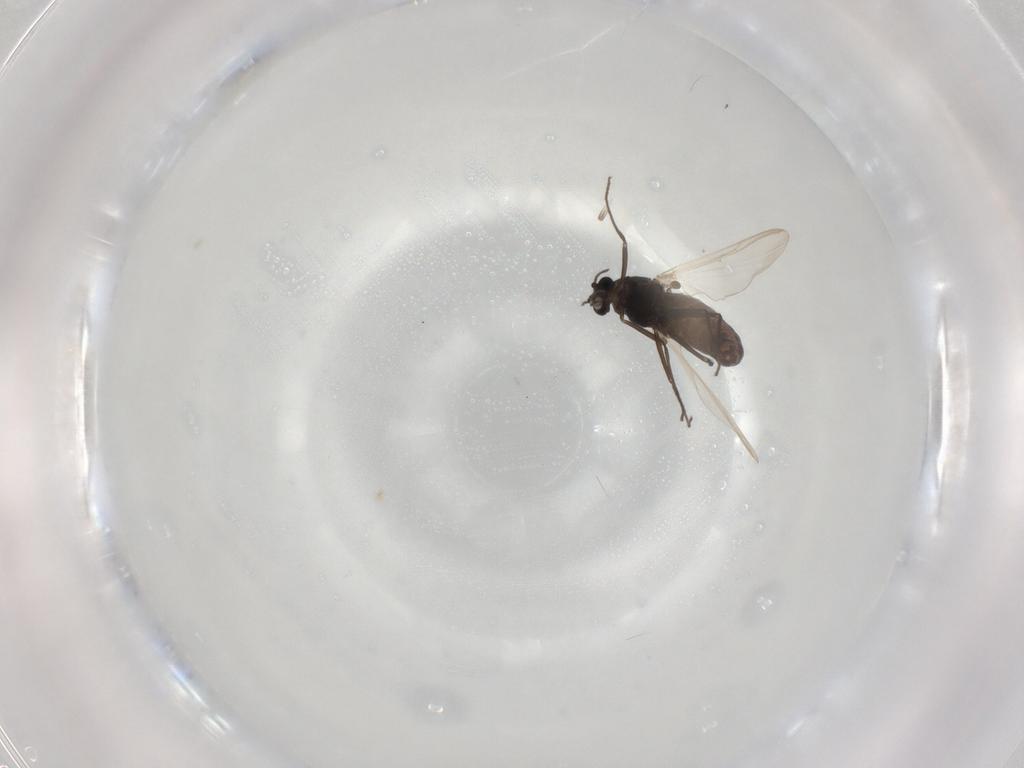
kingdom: Animalia
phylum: Arthropoda
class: Insecta
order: Diptera
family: Chironomidae
